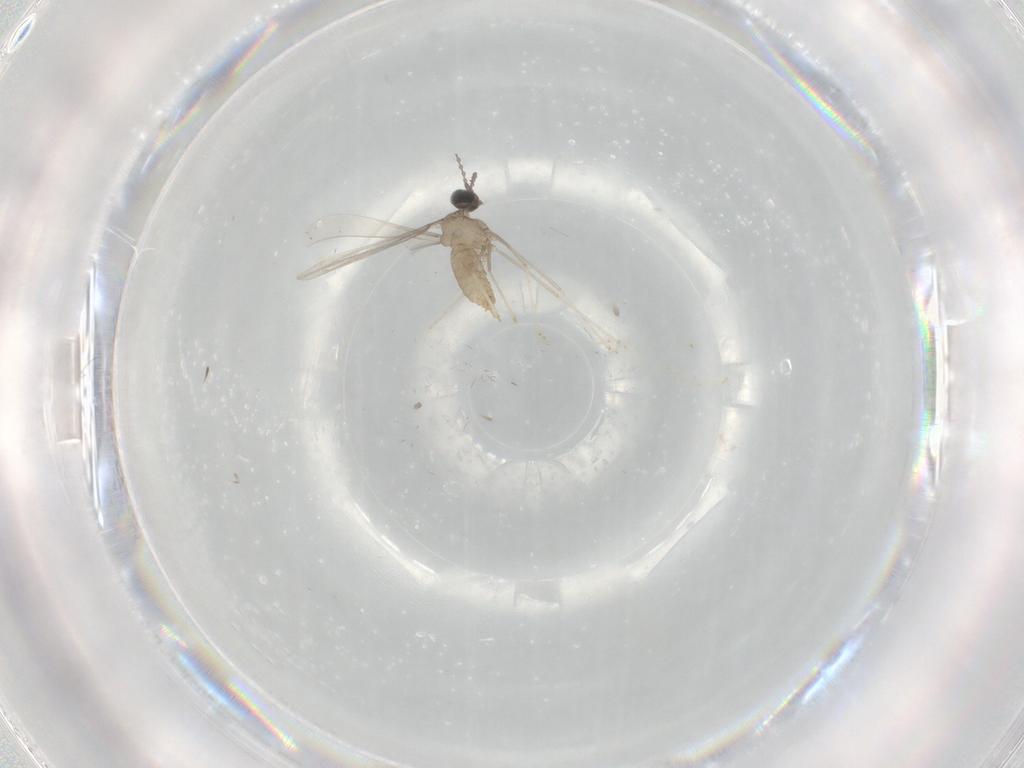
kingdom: Animalia
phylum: Arthropoda
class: Insecta
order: Diptera
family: Cecidomyiidae
